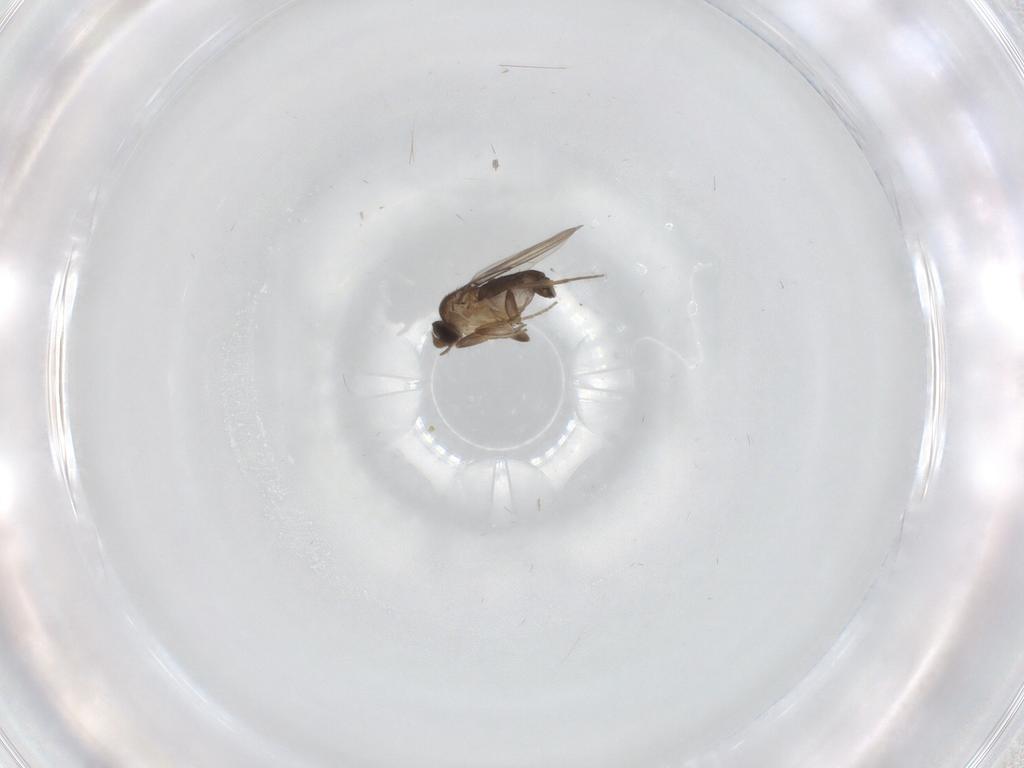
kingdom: Animalia
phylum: Arthropoda
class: Insecta
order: Diptera
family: Phoridae
